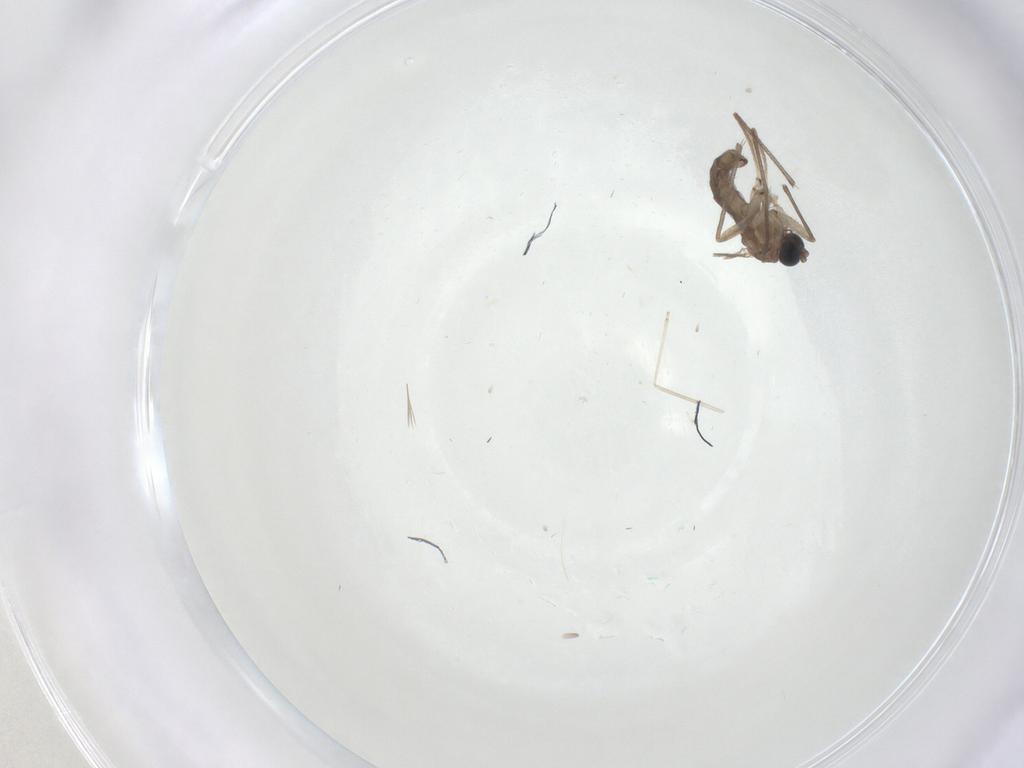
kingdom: Animalia
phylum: Arthropoda
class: Insecta
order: Diptera
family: Sciaridae
